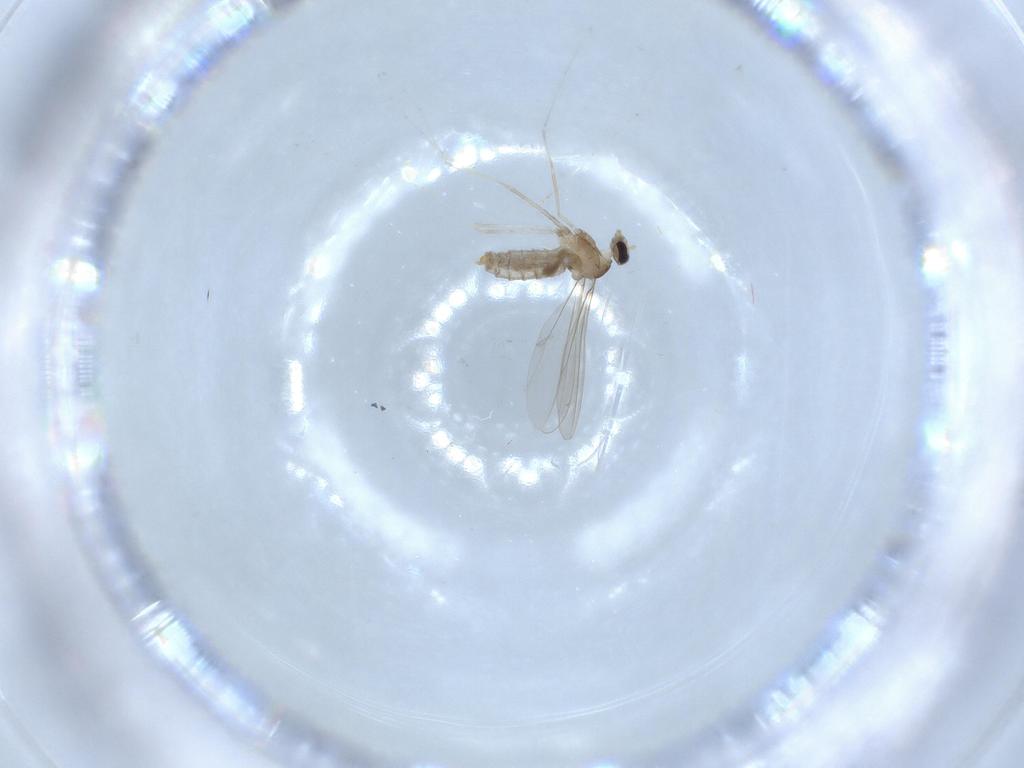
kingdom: Animalia
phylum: Arthropoda
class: Insecta
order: Diptera
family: Cecidomyiidae
